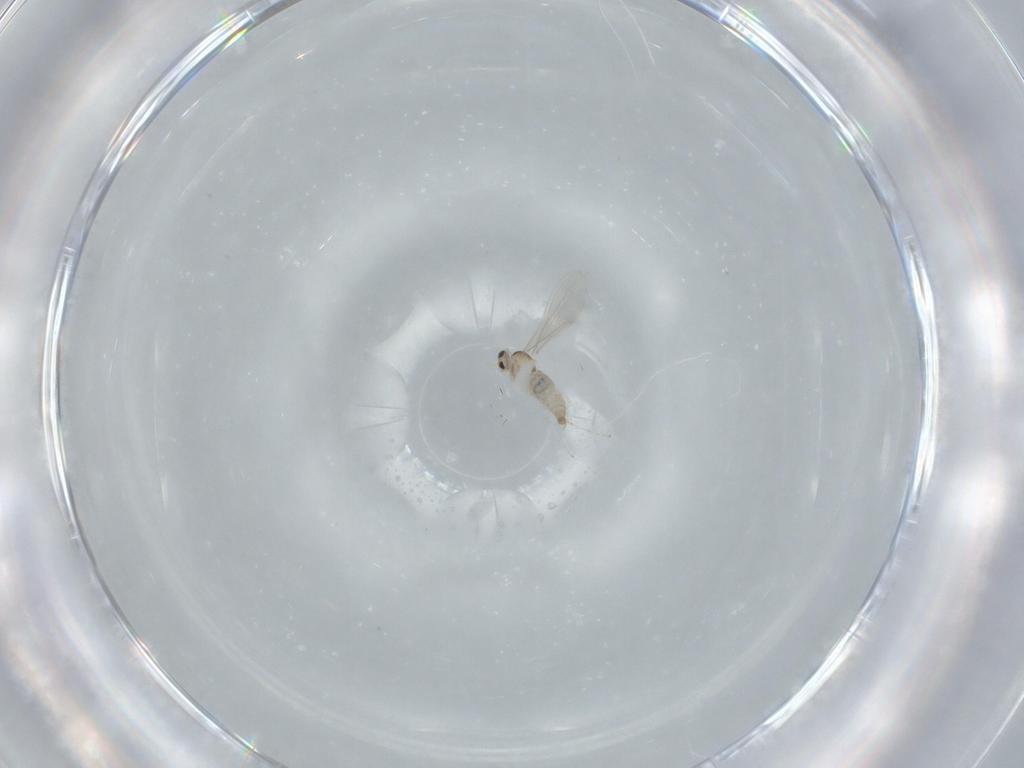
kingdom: Animalia
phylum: Arthropoda
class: Insecta
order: Diptera
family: Cecidomyiidae
